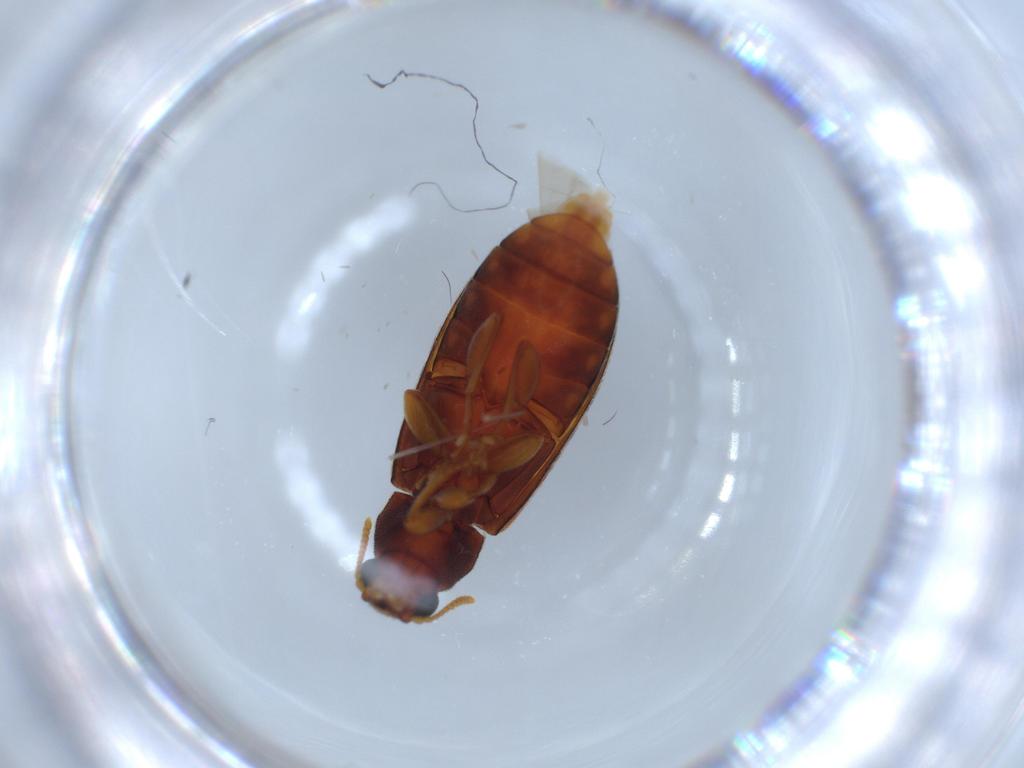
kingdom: Animalia
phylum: Arthropoda
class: Insecta
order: Coleoptera
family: Mycteridae
